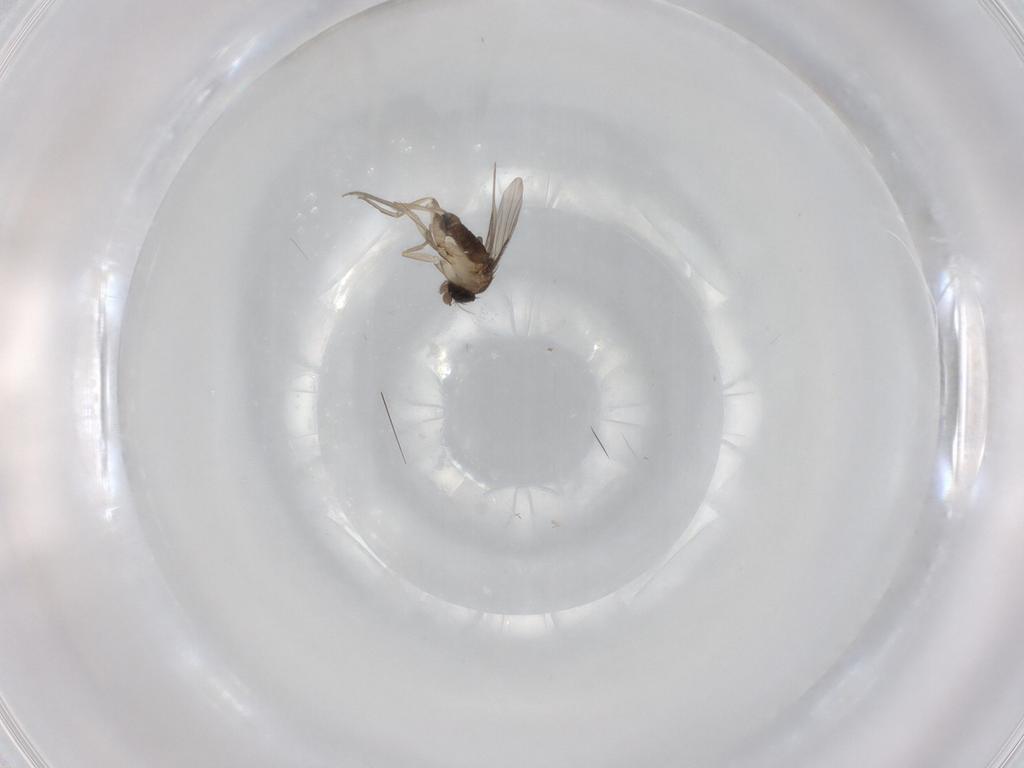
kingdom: Animalia
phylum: Arthropoda
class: Insecta
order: Diptera
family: Phoridae
